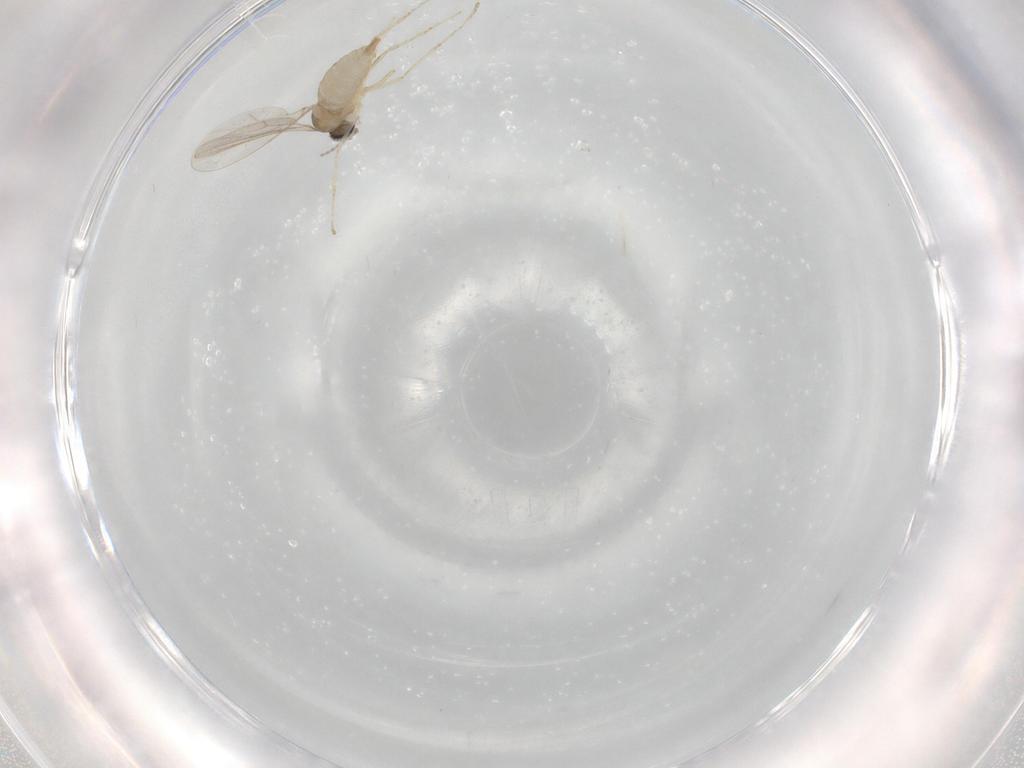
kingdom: Animalia
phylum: Arthropoda
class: Insecta
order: Diptera
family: Cecidomyiidae
